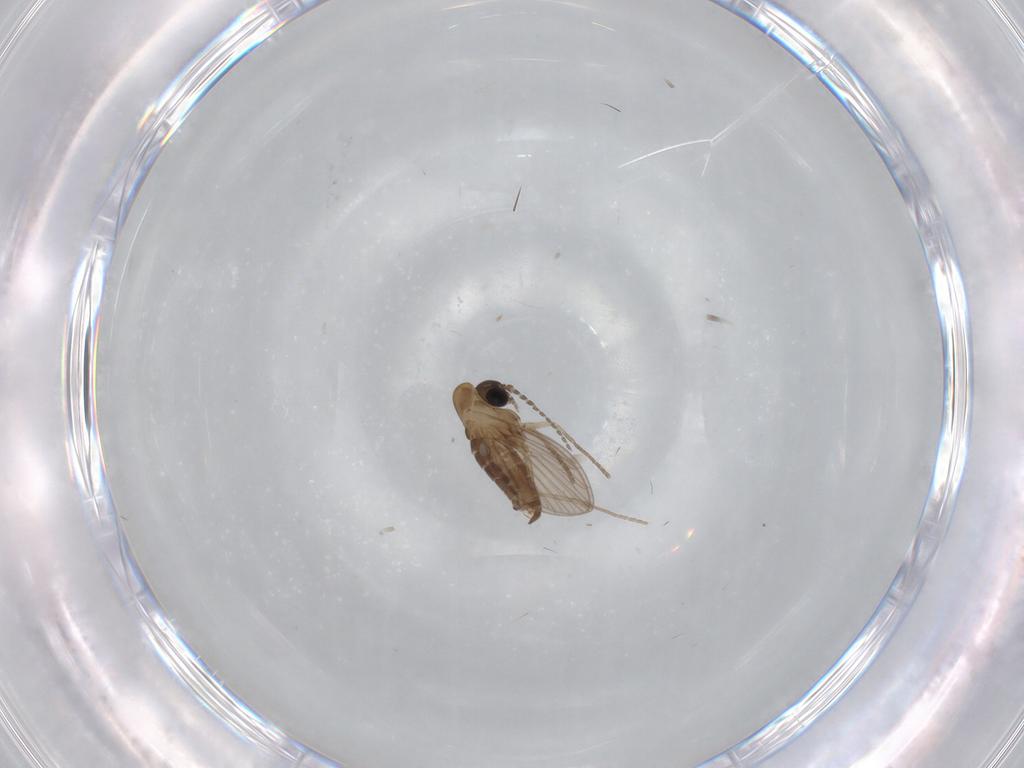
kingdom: Animalia
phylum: Arthropoda
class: Insecta
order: Diptera
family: Psychodidae
